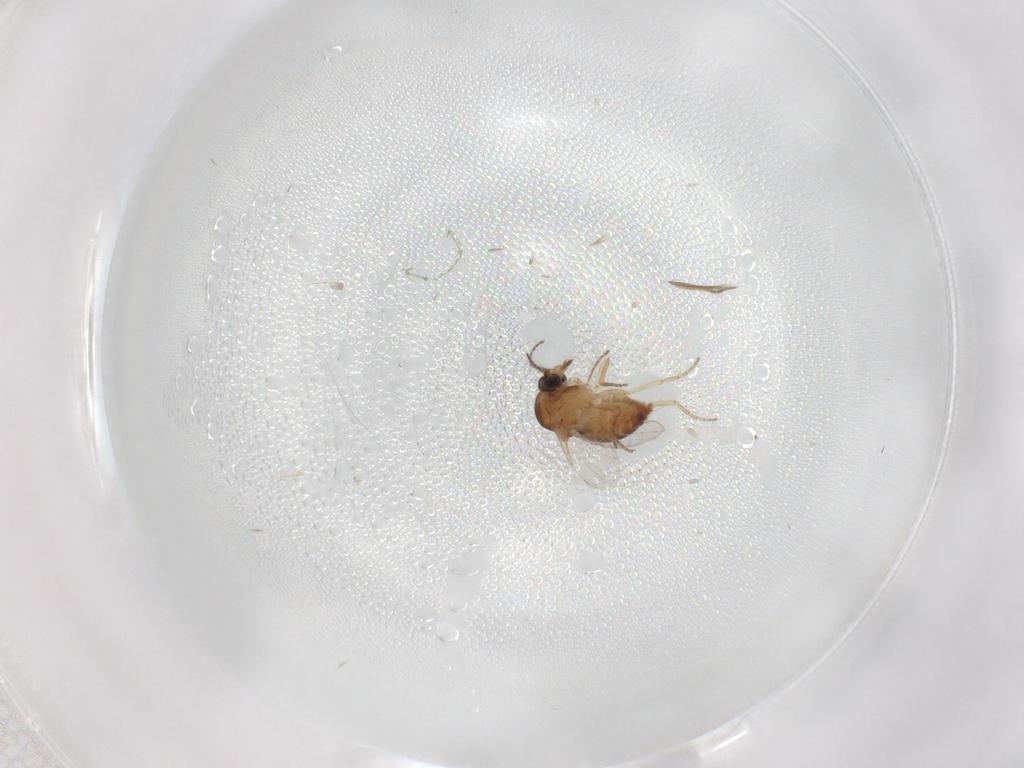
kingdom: Animalia
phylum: Arthropoda
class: Insecta
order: Diptera
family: Ceratopogonidae
